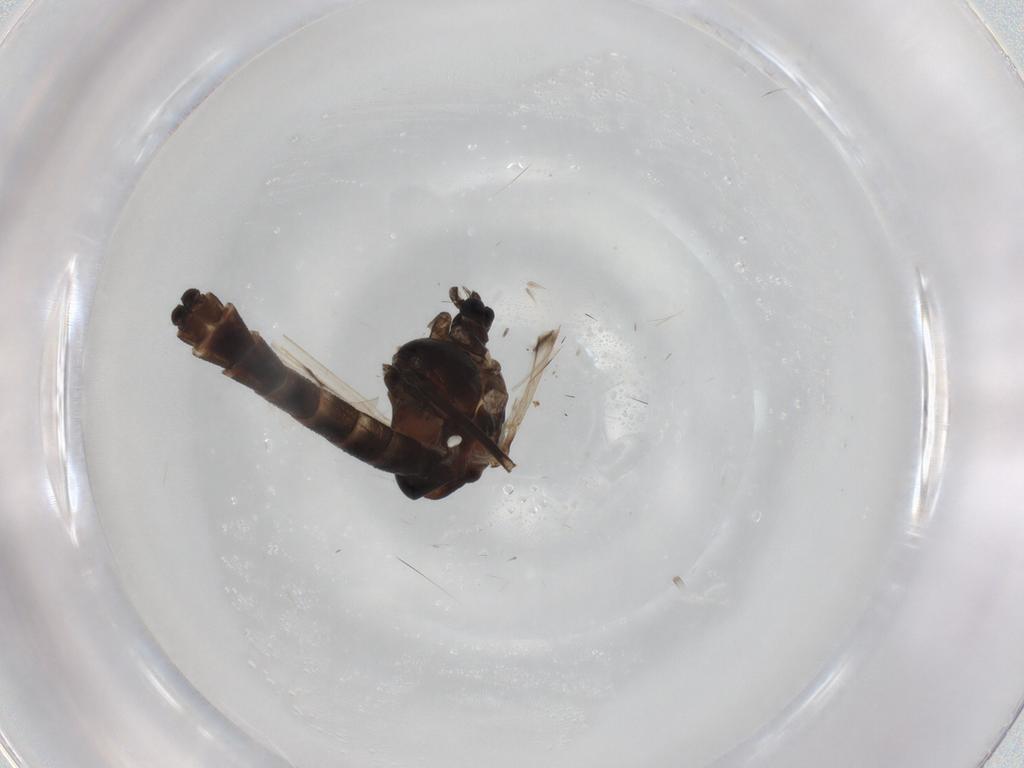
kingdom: Animalia
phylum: Arthropoda
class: Insecta
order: Diptera
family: Chironomidae
